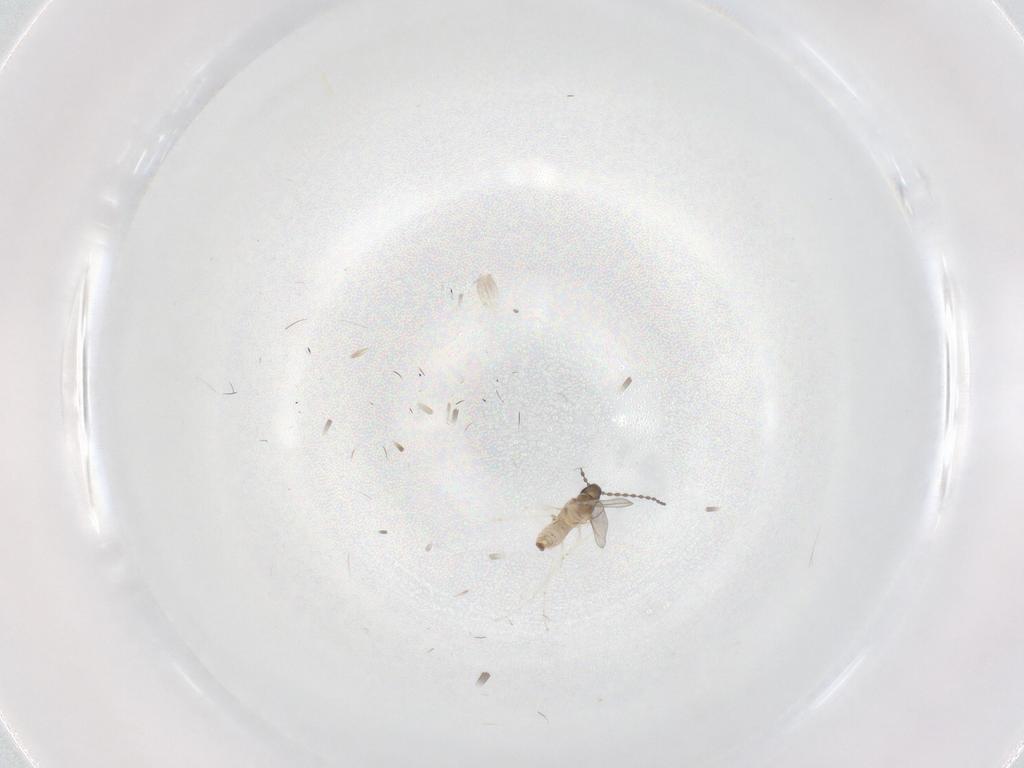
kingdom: Animalia
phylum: Arthropoda
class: Insecta
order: Diptera
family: Cecidomyiidae
